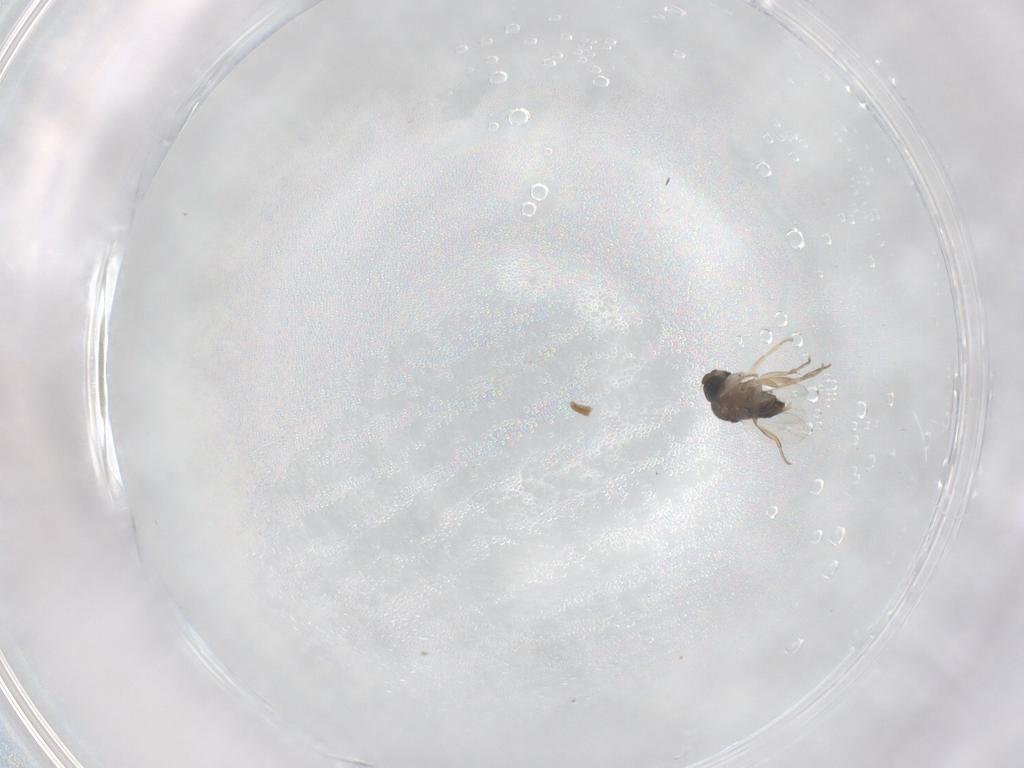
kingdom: Animalia
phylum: Arthropoda
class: Insecta
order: Diptera
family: Phoridae
